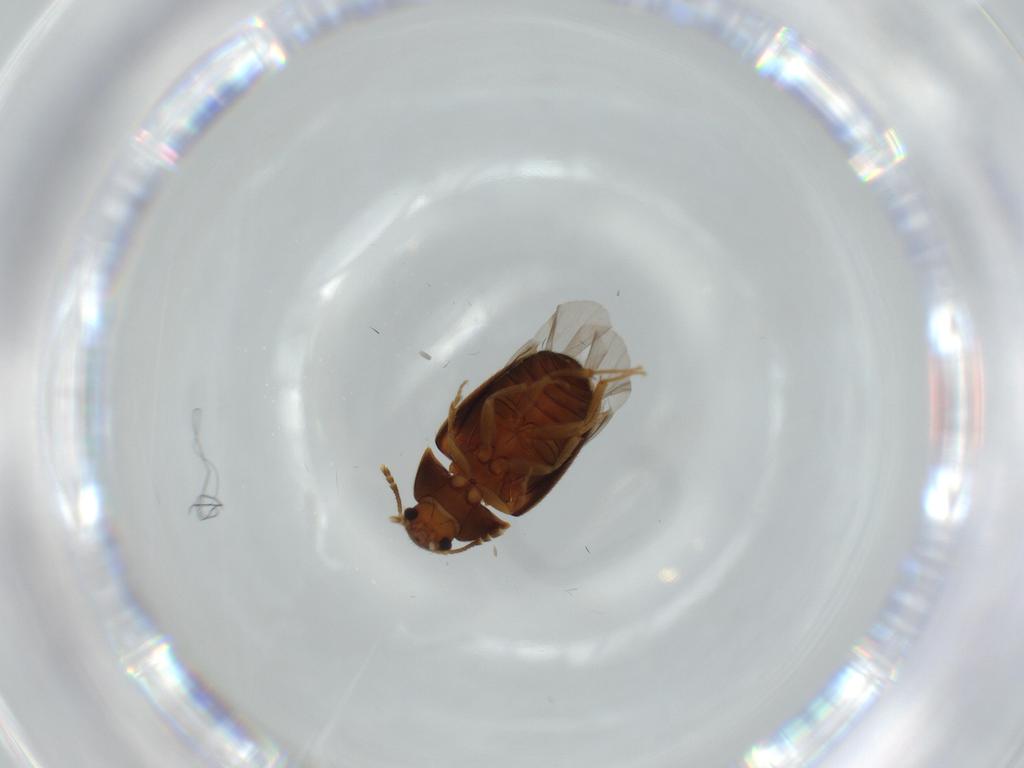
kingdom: Animalia
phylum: Arthropoda
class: Insecta
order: Coleoptera
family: Mycetophagidae
